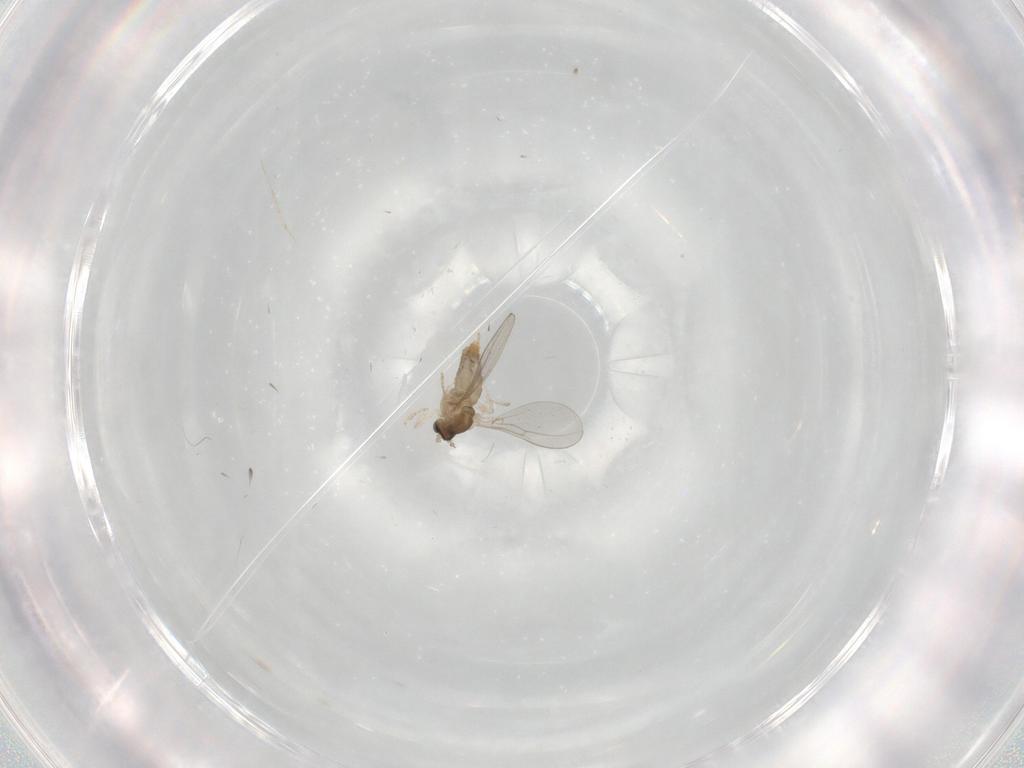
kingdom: Animalia
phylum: Arthropoda
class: Insecta
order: Diptera
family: Cecidomyiidae
